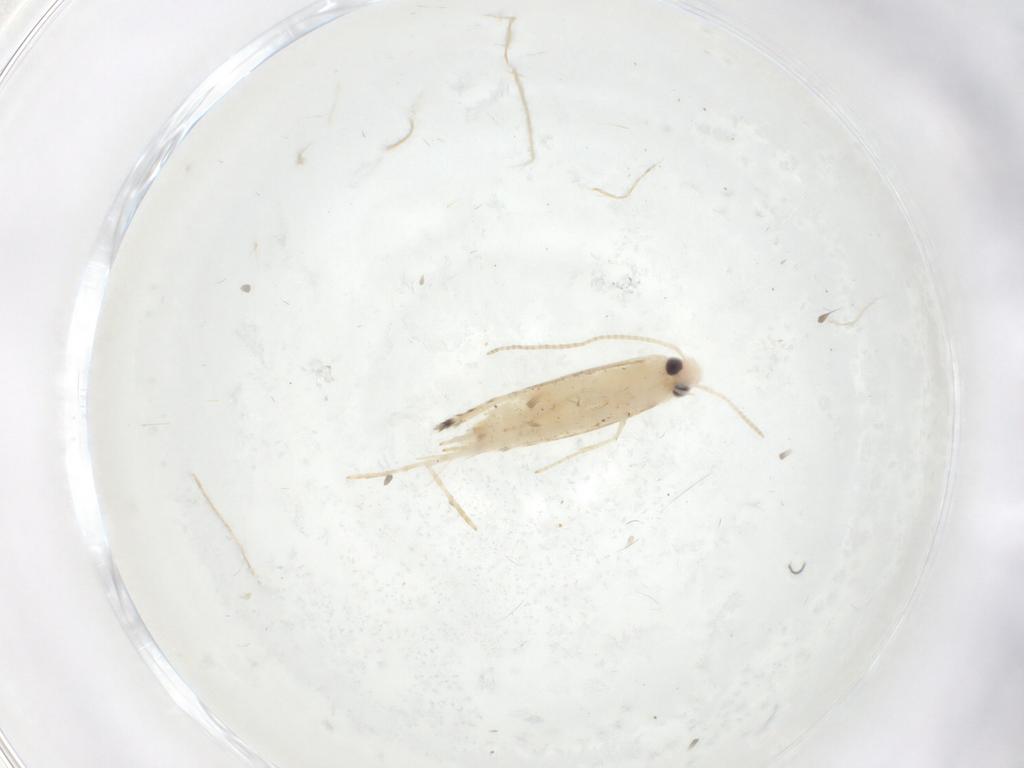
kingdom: Animalia
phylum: Arthropoda
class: Insecta
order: Lepidoptera
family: Gracillariidae
